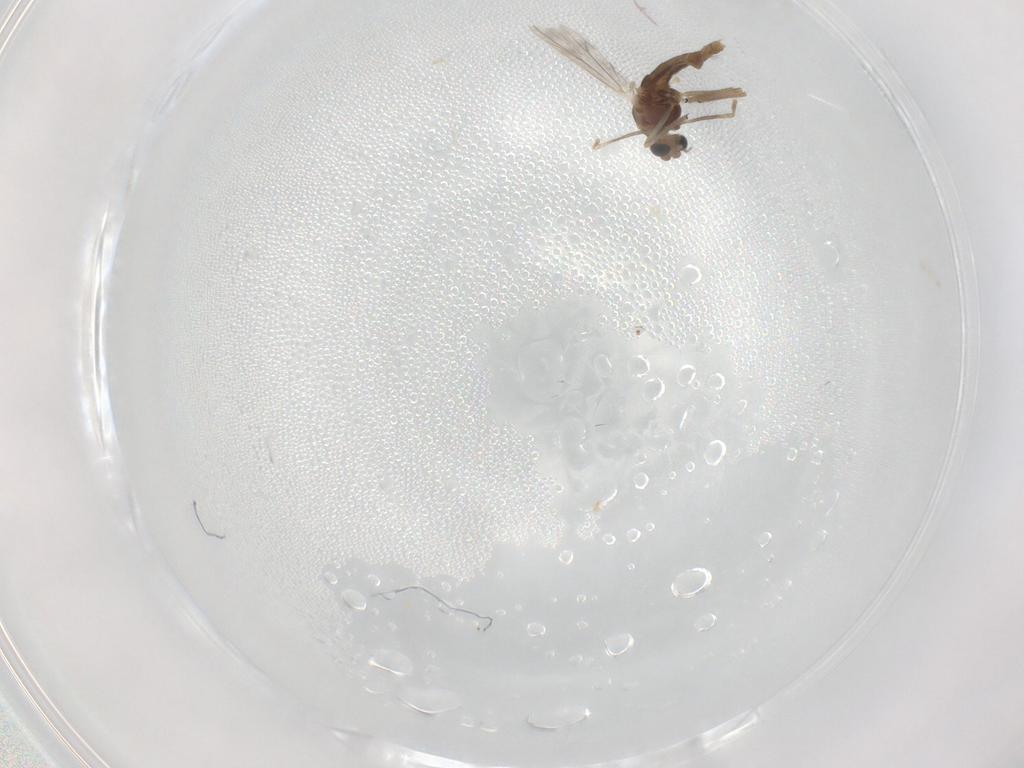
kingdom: Animalia
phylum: Arthropoda
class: Insecta
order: Diptera
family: Chironomidae
